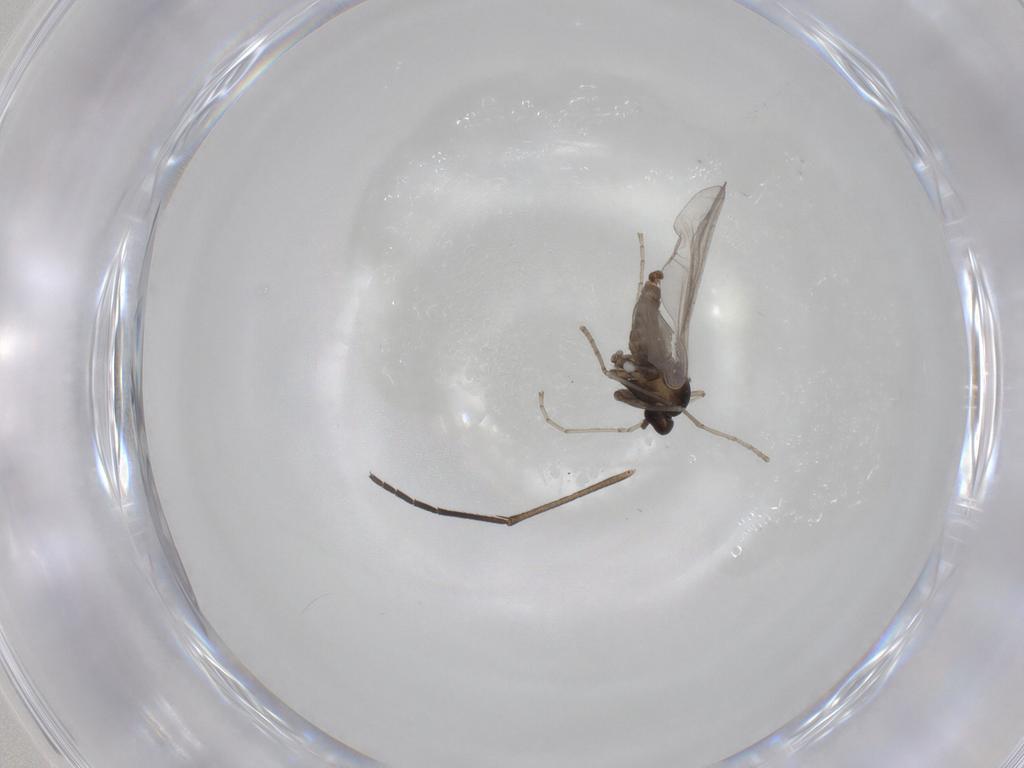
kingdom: Animalia
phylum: Arthropoda
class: Insecta
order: Diptera
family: Cecidomyiidae
